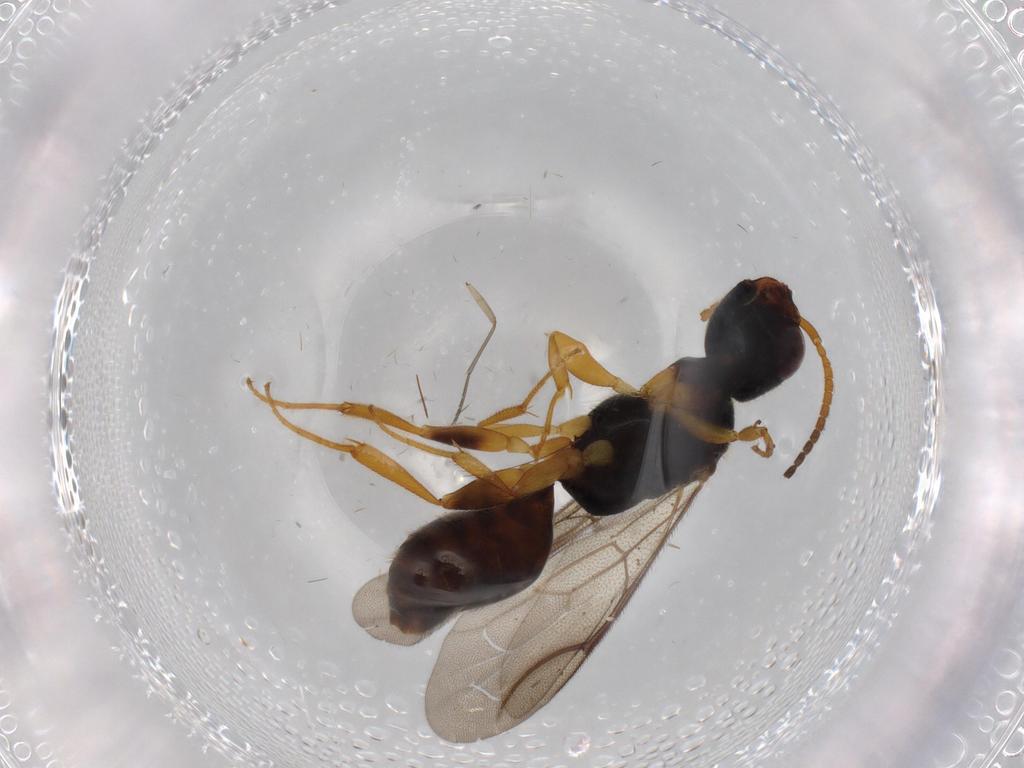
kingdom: Animalia
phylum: Arthropoda
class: Insecta
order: Hymenoptera
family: Bethylidae
